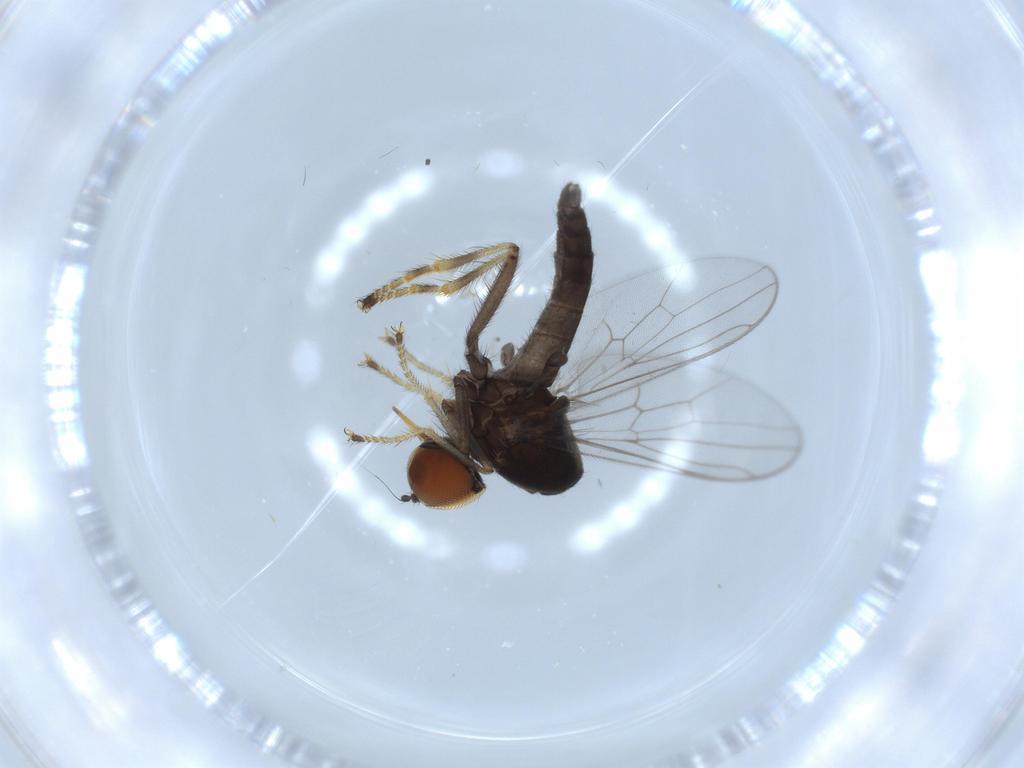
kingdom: Animalia
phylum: Arthropoda
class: Insecta
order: Diptera
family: Hybotidae
